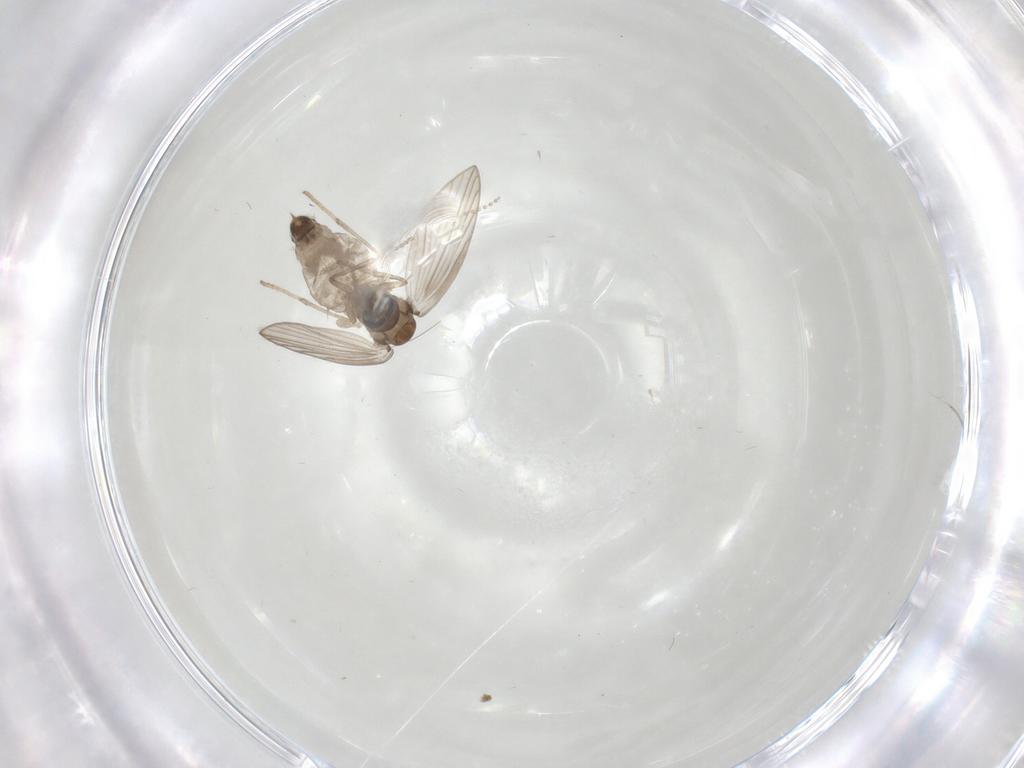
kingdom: Animalia
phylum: Arthropoda
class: Insecta
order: Diptera
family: Psychodidae
